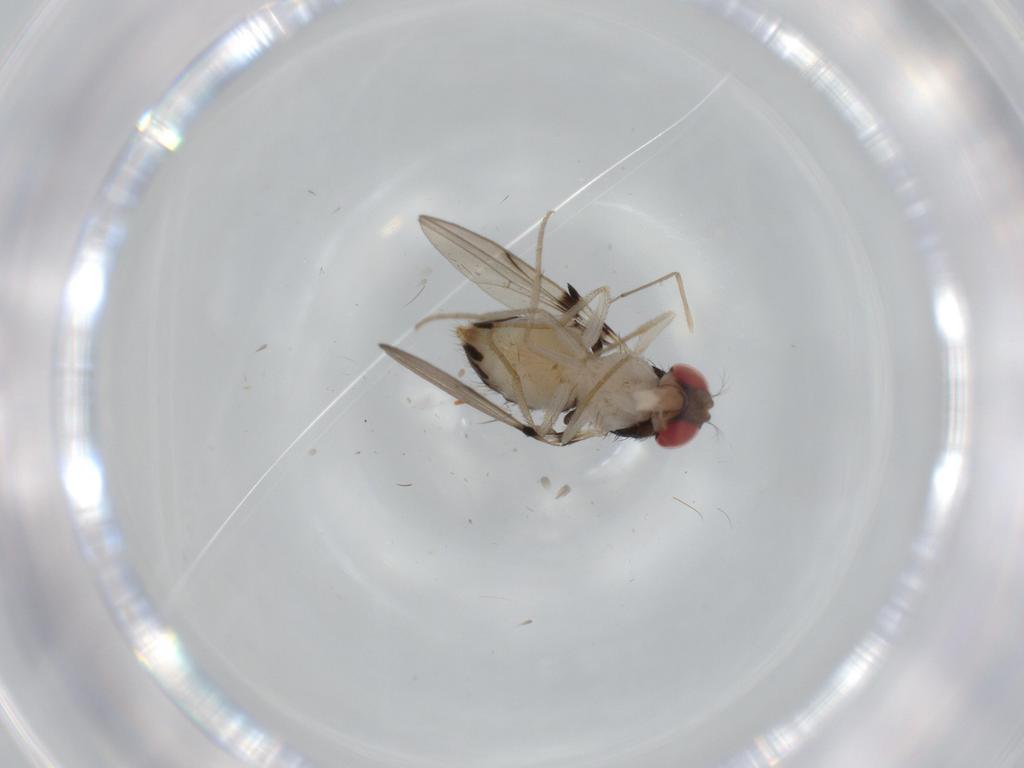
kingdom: Animalia
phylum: Arthropoda
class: Insecta
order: Diptera
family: Drosophilidae
